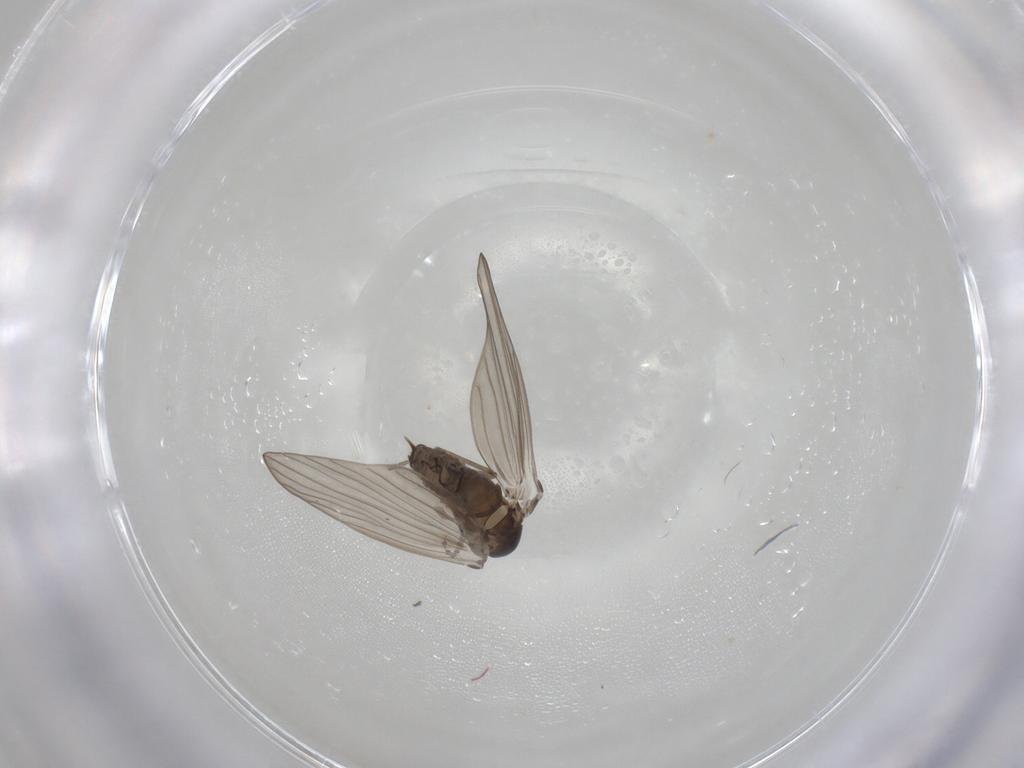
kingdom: Animalia
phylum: Arthropoda
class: Insecta
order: Diptera
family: Psychodidae
